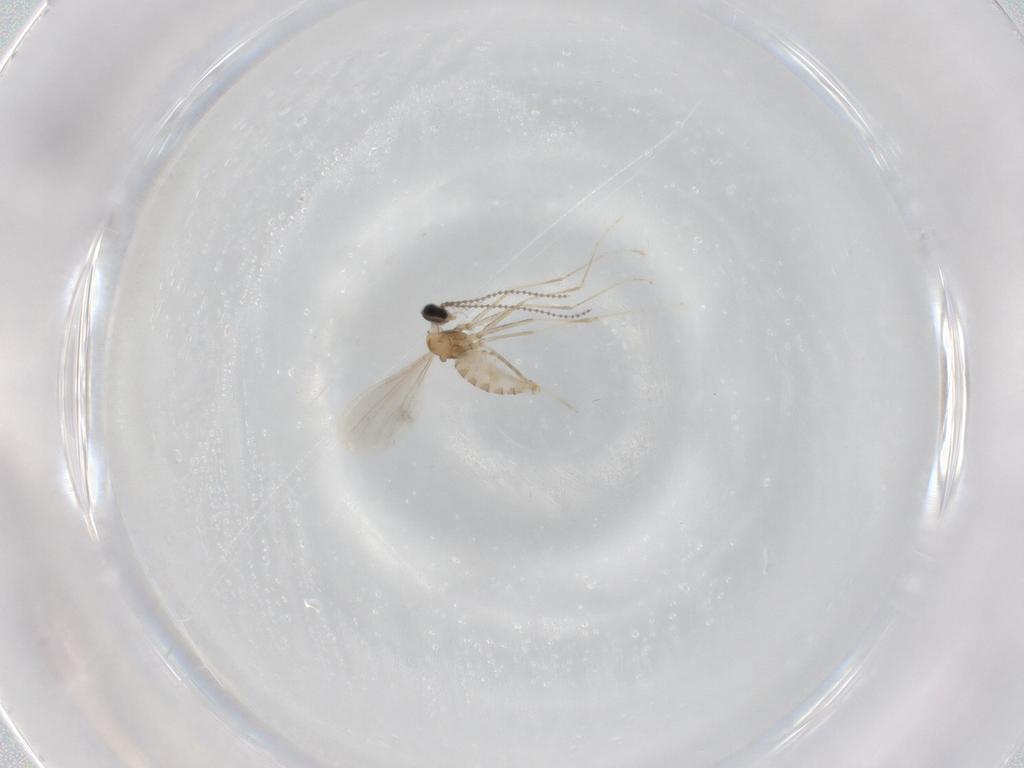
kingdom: Animalia
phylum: Arthropoda
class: Insecta
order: Diptera
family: Cecidomyiidae
